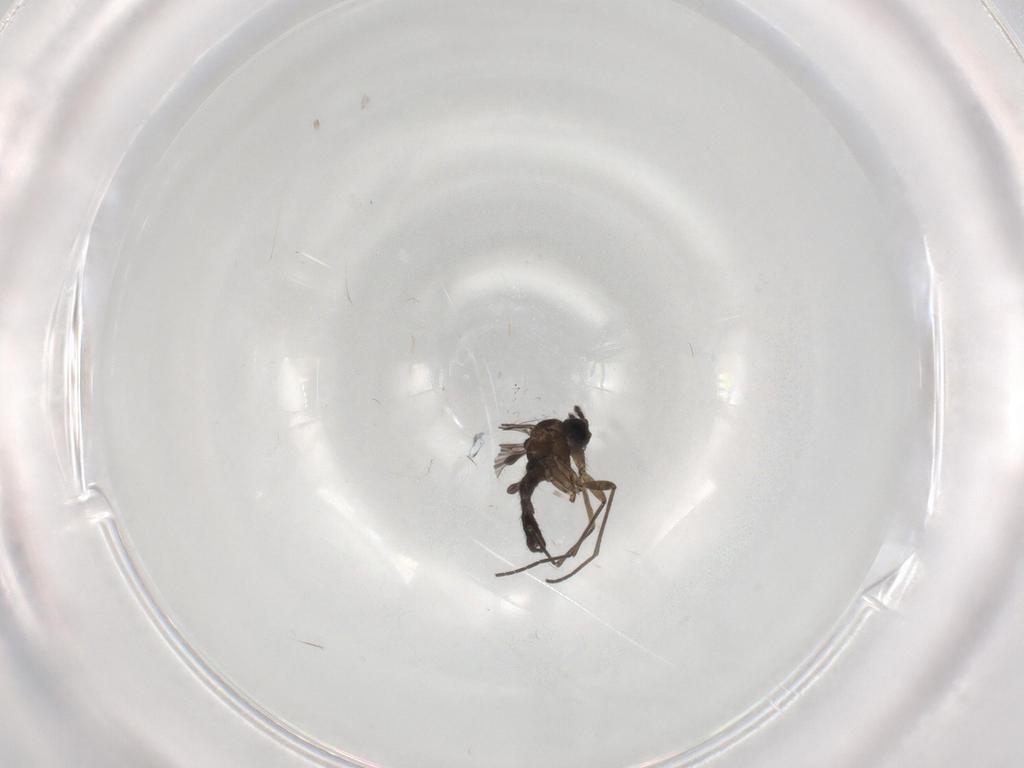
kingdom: Animalia
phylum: Arthropoda
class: Insecta
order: Diptera
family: Sciaridae
